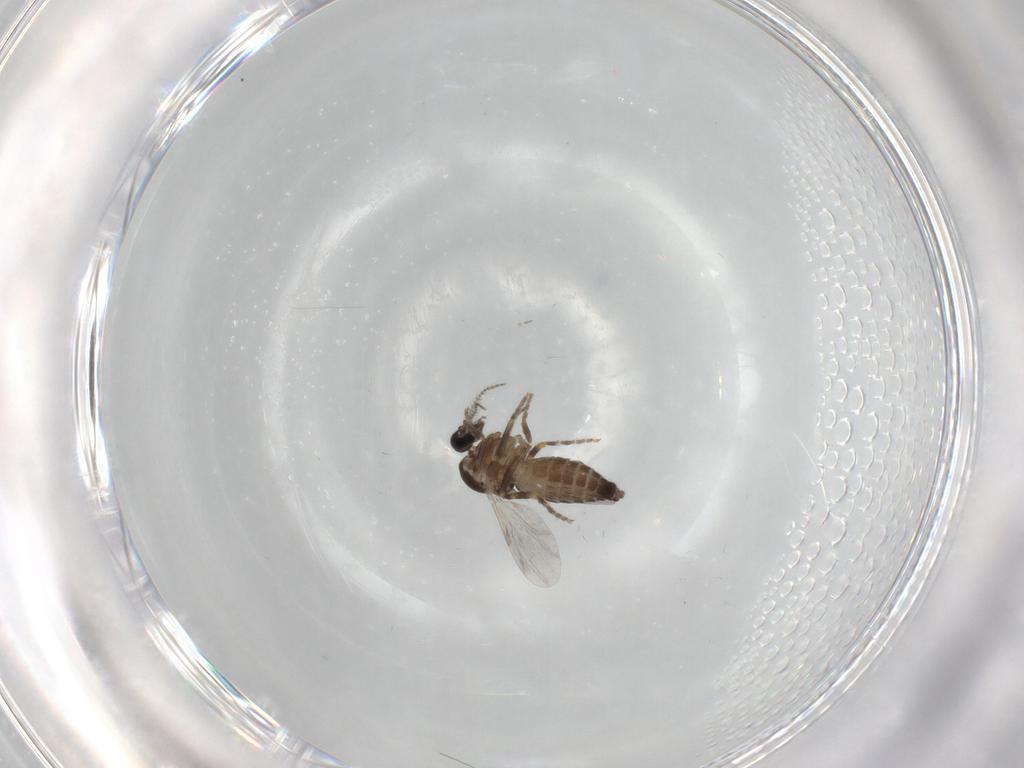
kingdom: Animalia
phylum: Arthropoda
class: Insecta
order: Diptera
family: Ceratopogonidae
